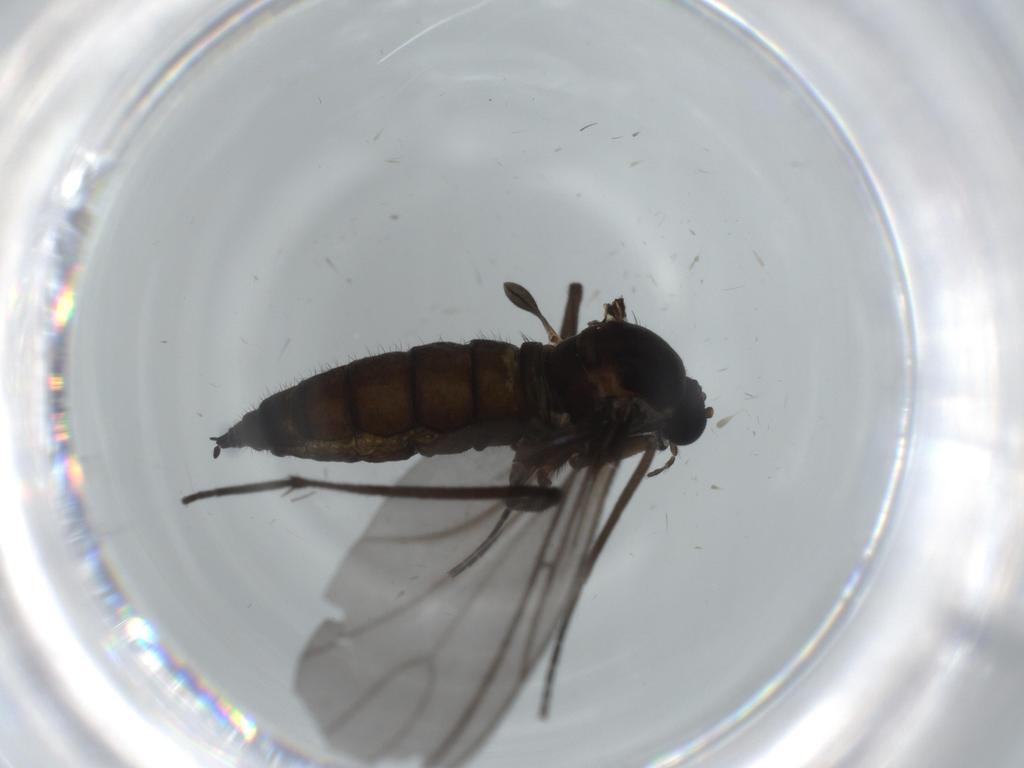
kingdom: Animalia
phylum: Arthropoda
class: Insecta
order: Diptera
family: Sciaridae
